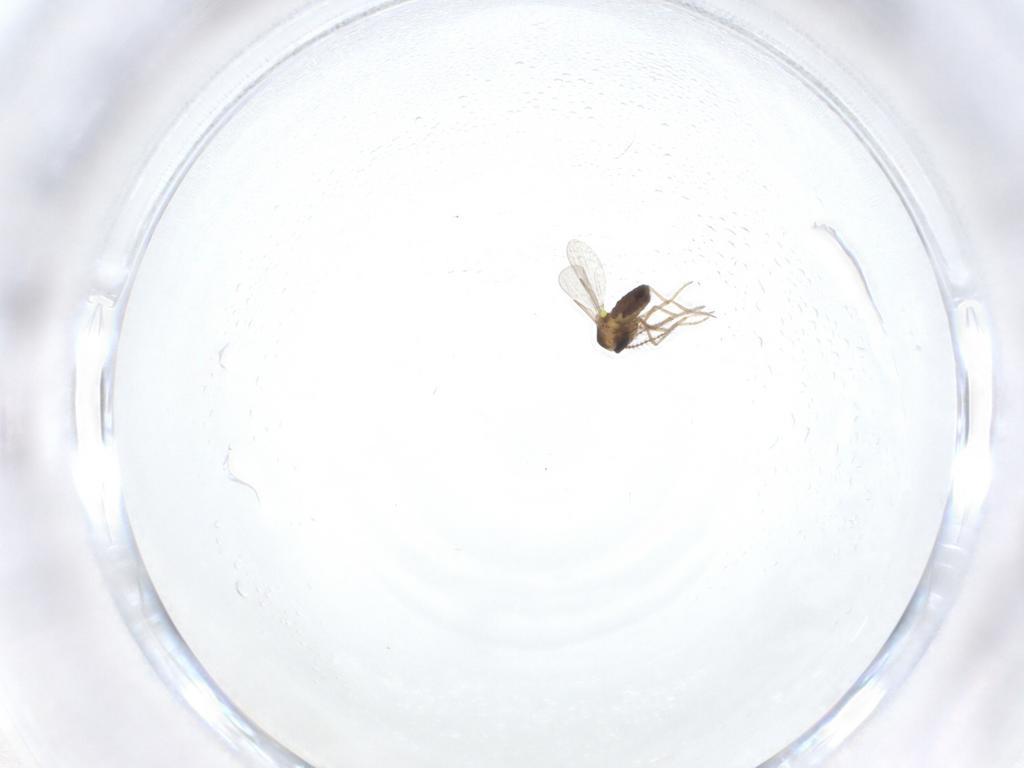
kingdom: Animalia
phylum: Arthropoda
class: Insecta
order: Diptera
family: Ceratopogonidae
